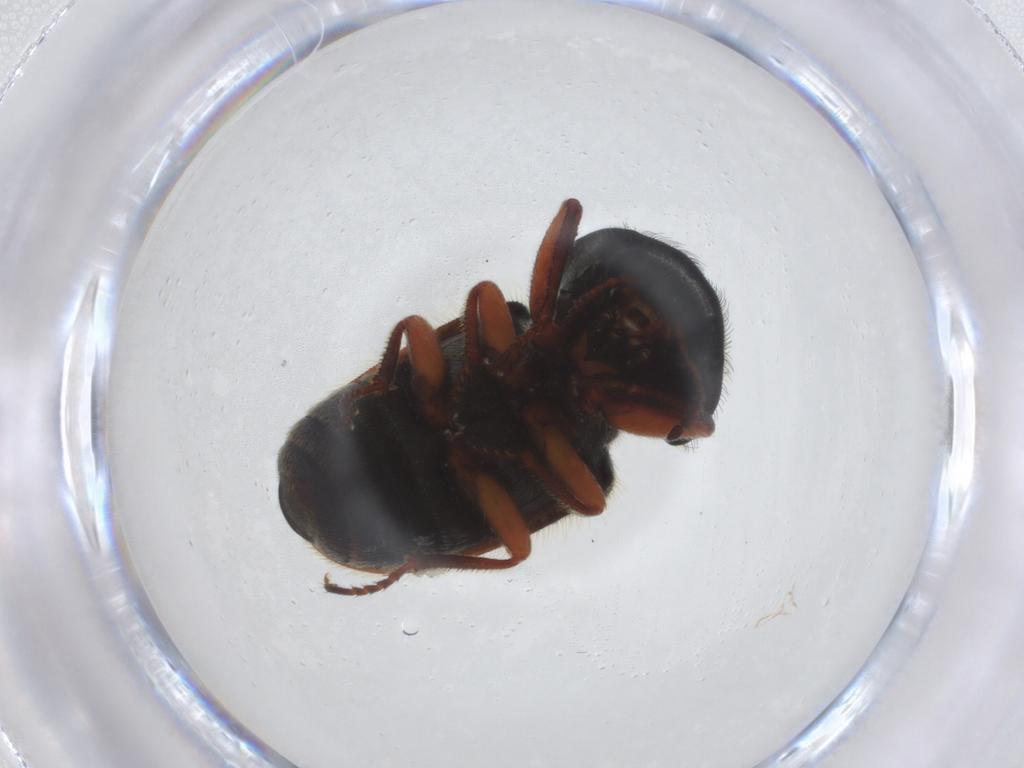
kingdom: Animalia
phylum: Arthropoda
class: Insecta
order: Coleoptera
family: Melyridae
